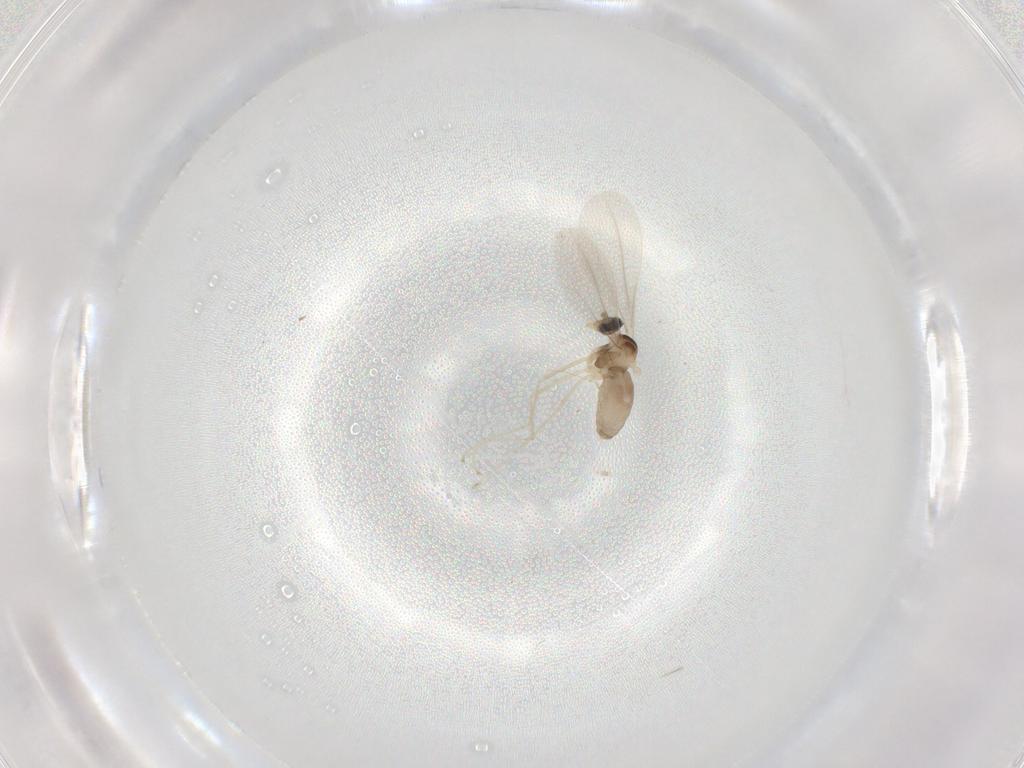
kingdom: Animalia
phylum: Arthropoda
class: Insecta
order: Diptera
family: Cecidomyiidae
